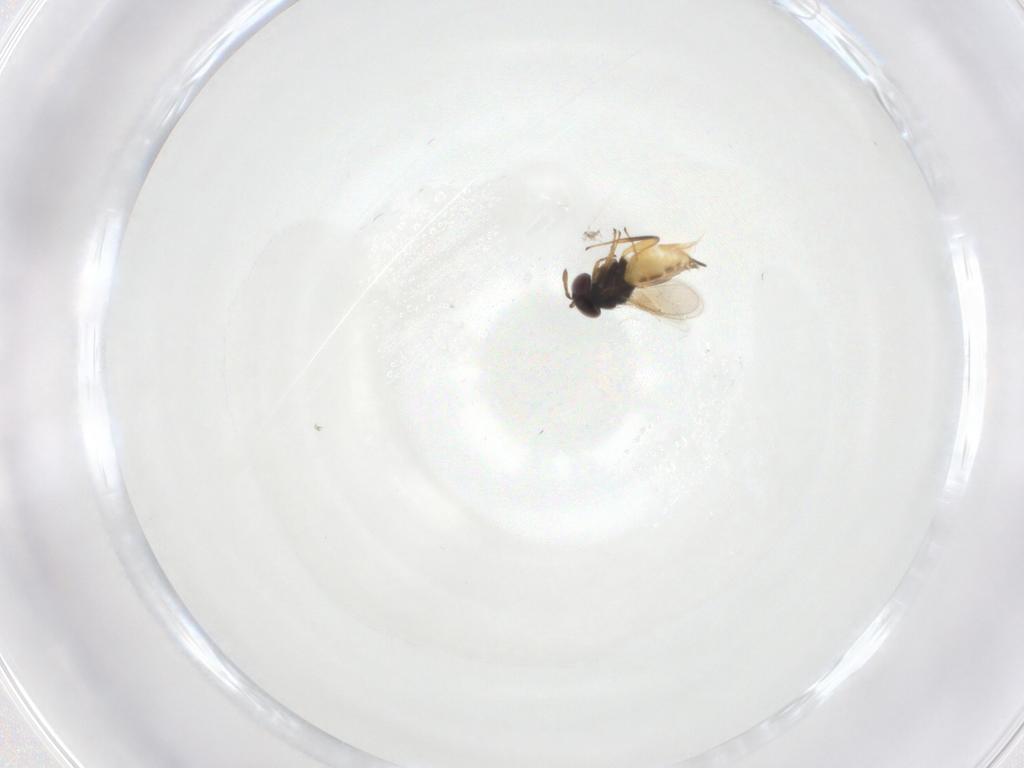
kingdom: Animalia
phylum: Arthropoda
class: Insecta
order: Hymenoptera
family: Aphelinidae
